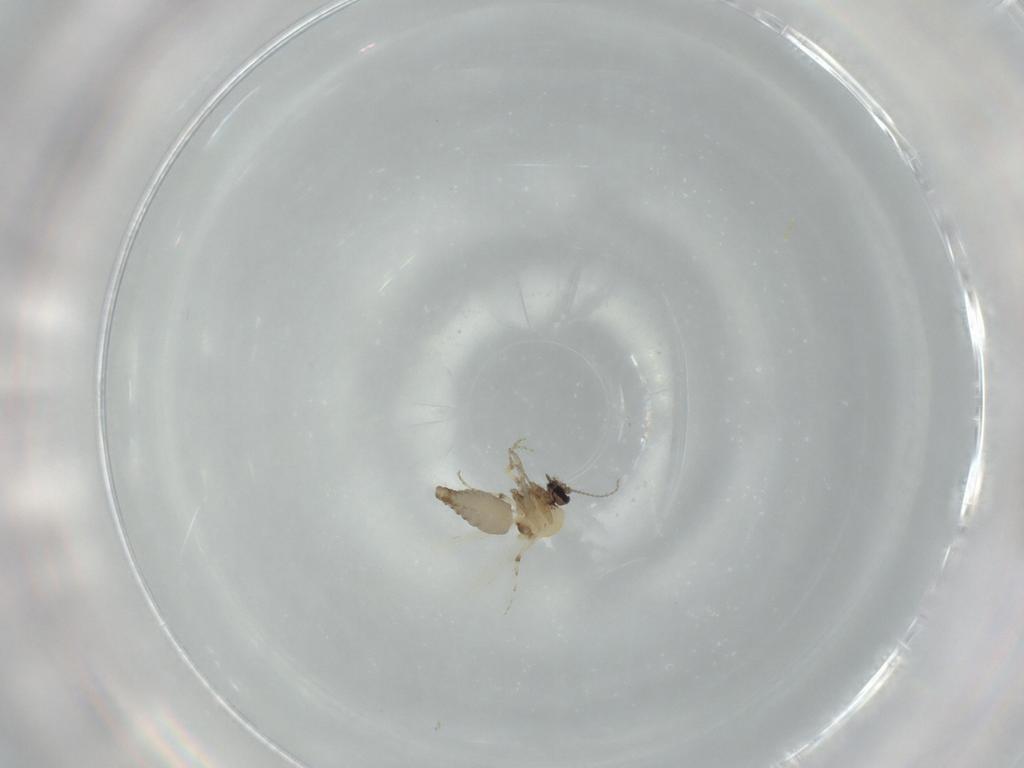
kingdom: Animalia
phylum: Arthropoda
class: Insecta
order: Diptera
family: Ceratopogonidae
